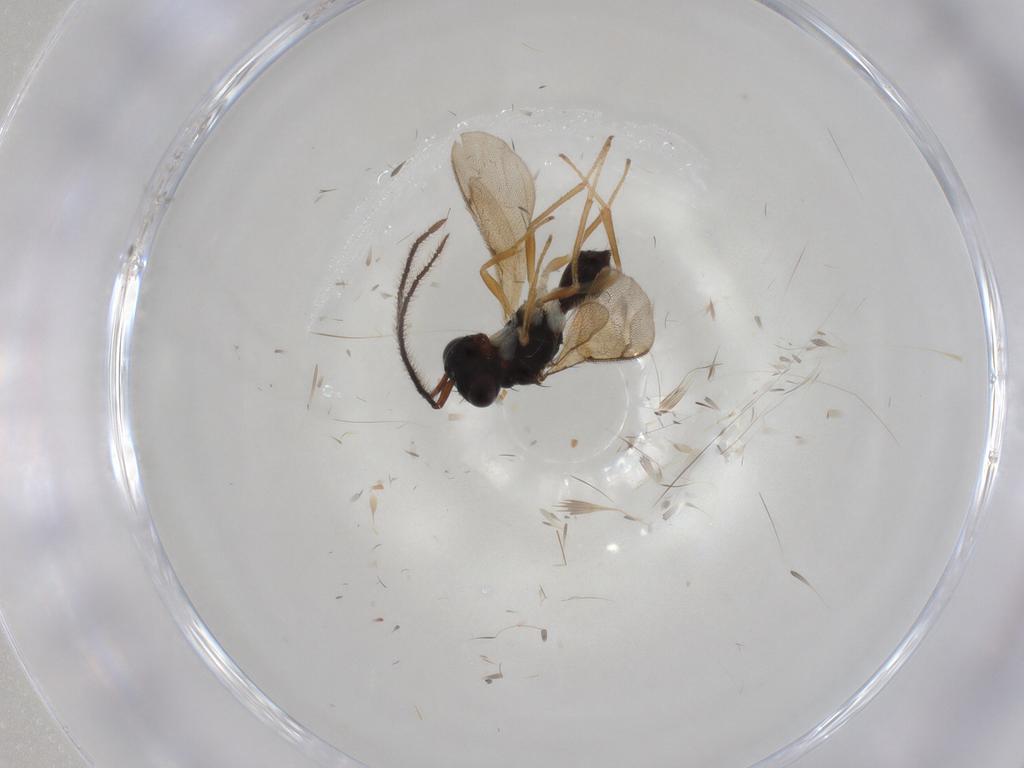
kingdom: Animalia
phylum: Arthropoda
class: Insecta
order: Hymenoptera
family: Diparidae
